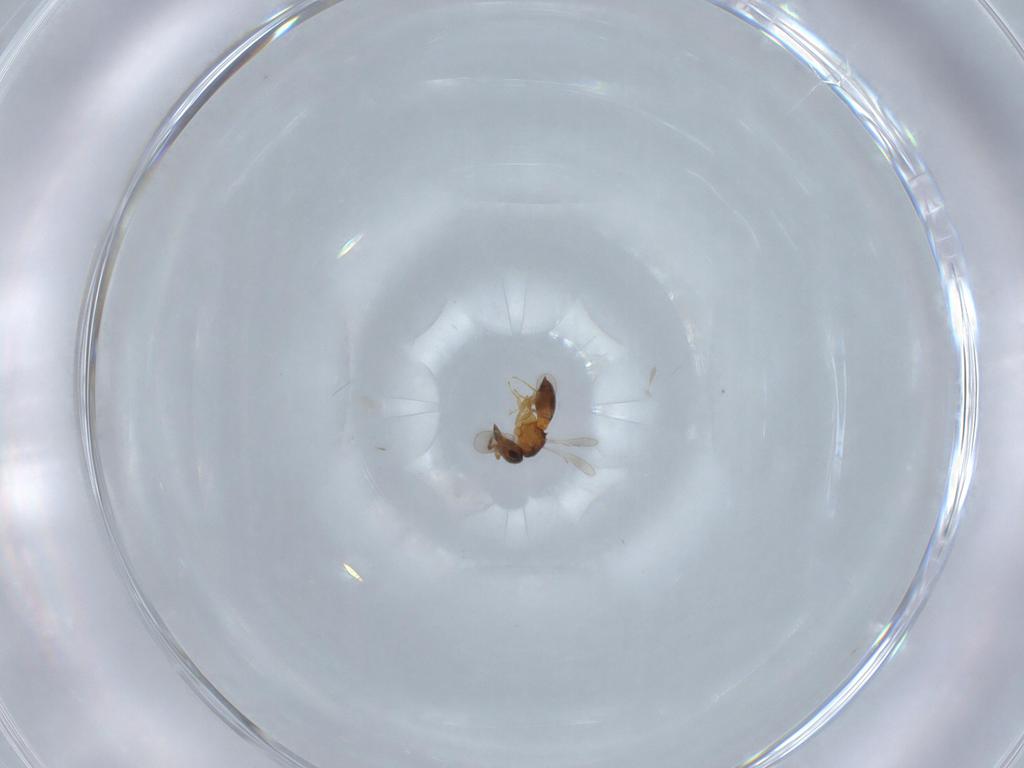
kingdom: Animalia
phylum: Arthropoda
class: Insecta
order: Hymenoptera
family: Scelionidae
